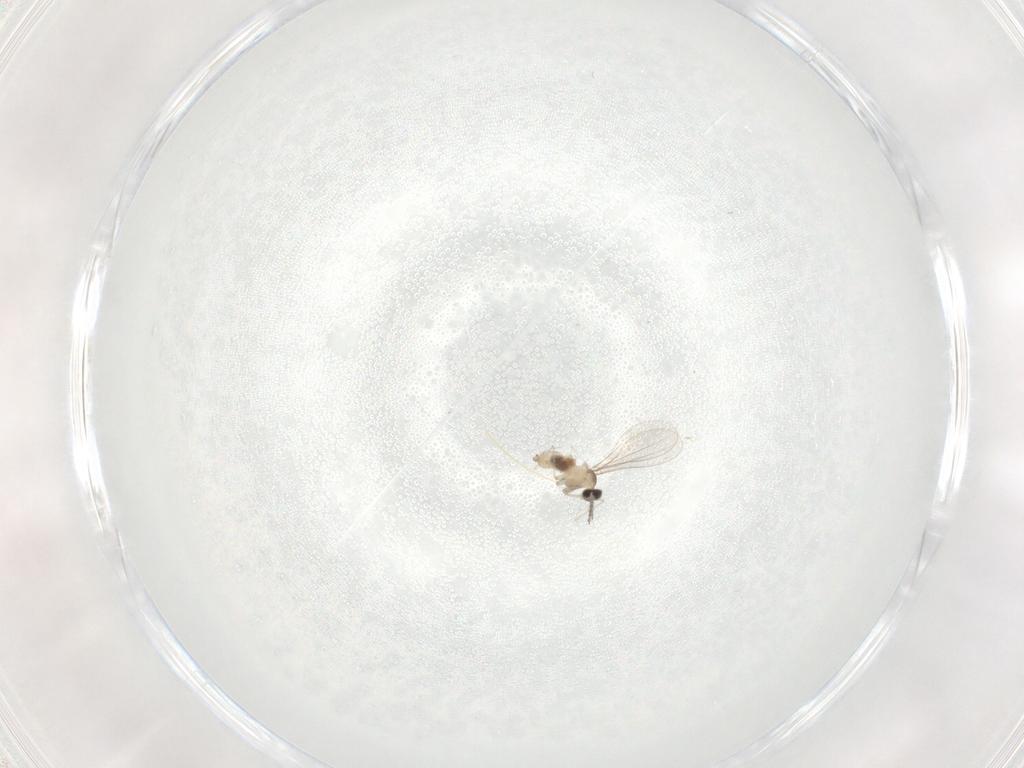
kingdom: Animalia
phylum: Arthropoda
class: Insecta
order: Diptera
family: Cecidomyiidae
